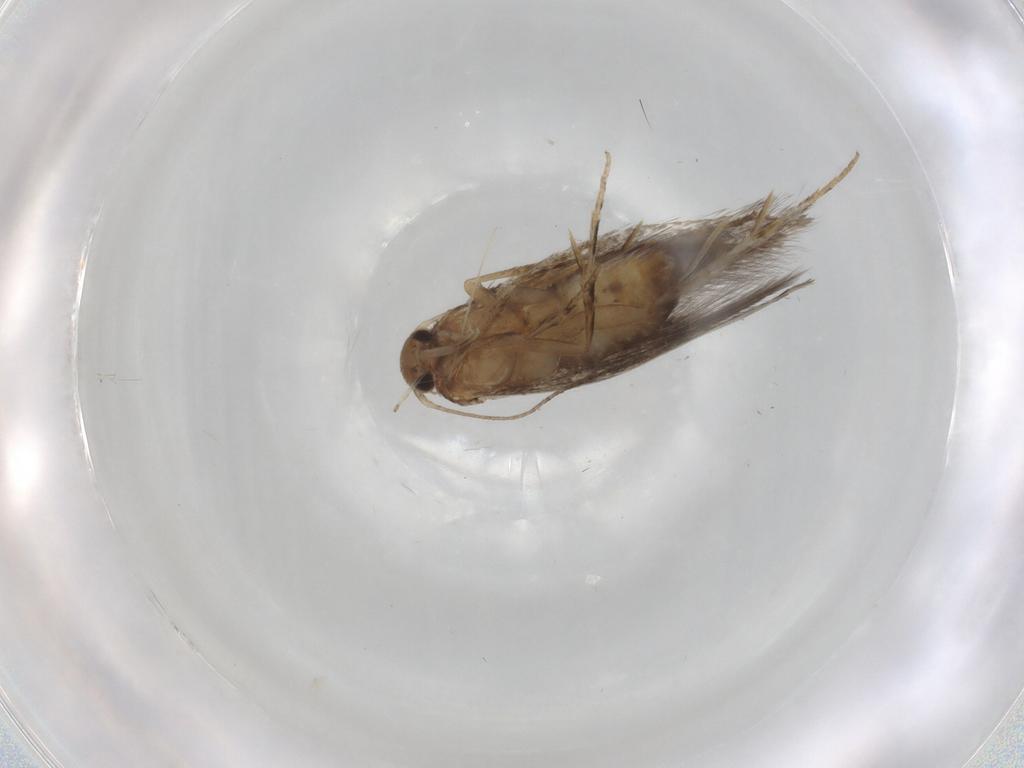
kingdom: Animalia
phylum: Arthropoda
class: Insecta
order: Lepidoptera
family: Elachistidae
